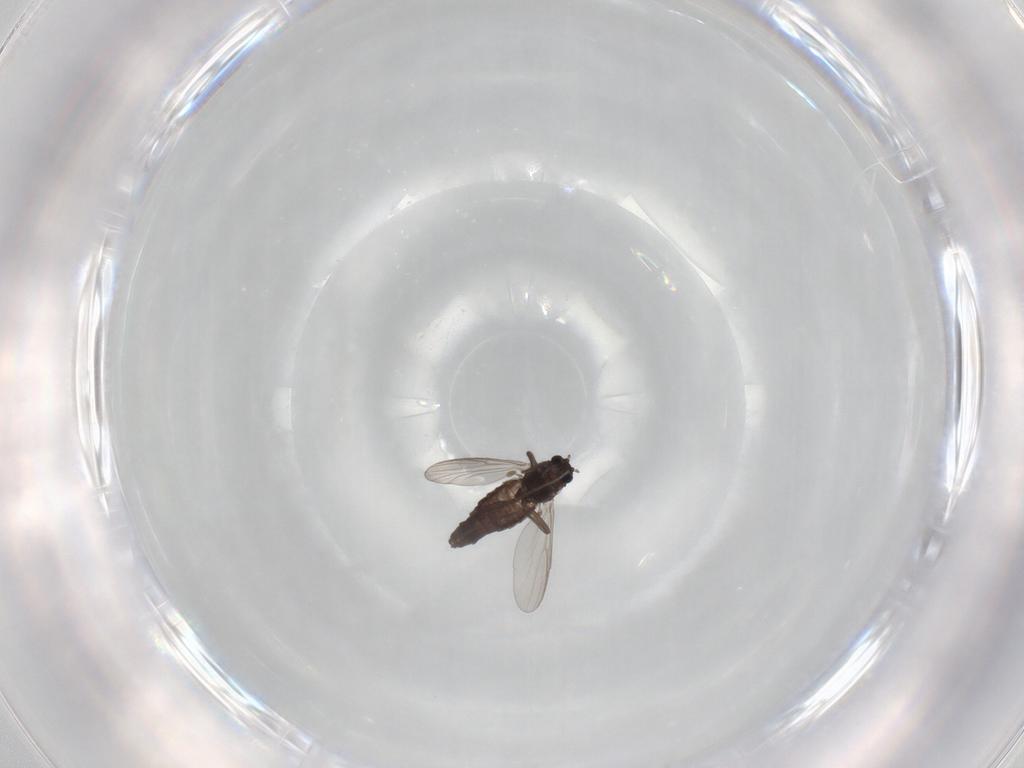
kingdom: Animalia
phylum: Arthropoda
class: Insecta
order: Diptera
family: Chironomidae
